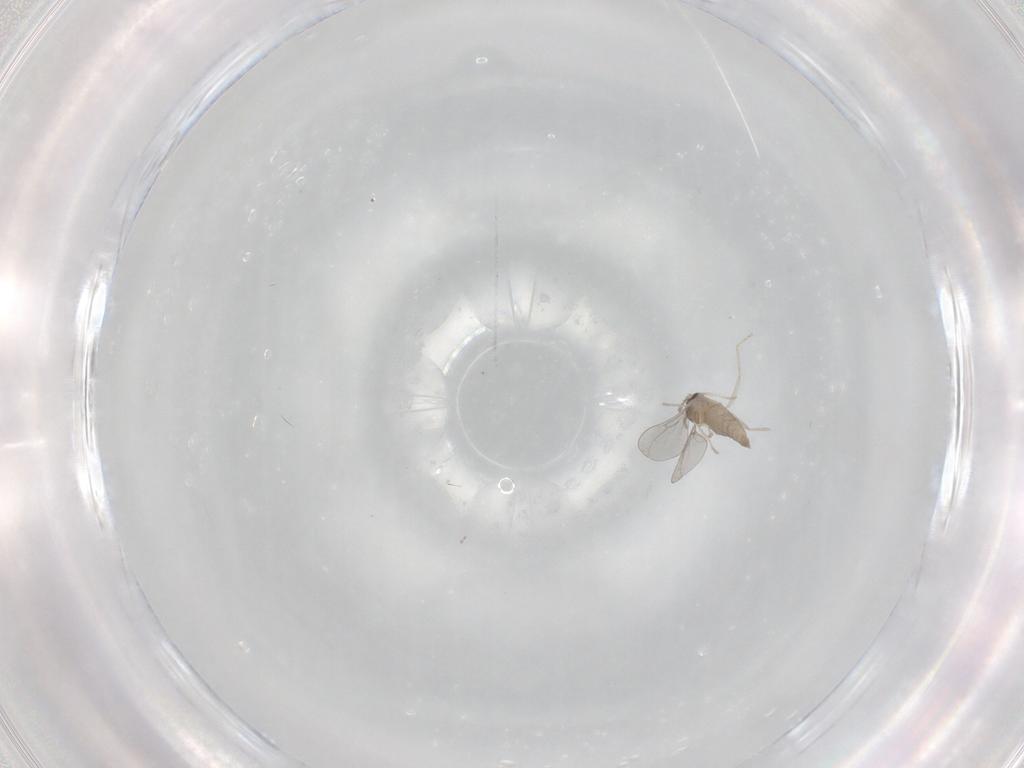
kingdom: Animalia
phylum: Arthropoda
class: Insecta
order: Diptera
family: Cecidomyiidae
